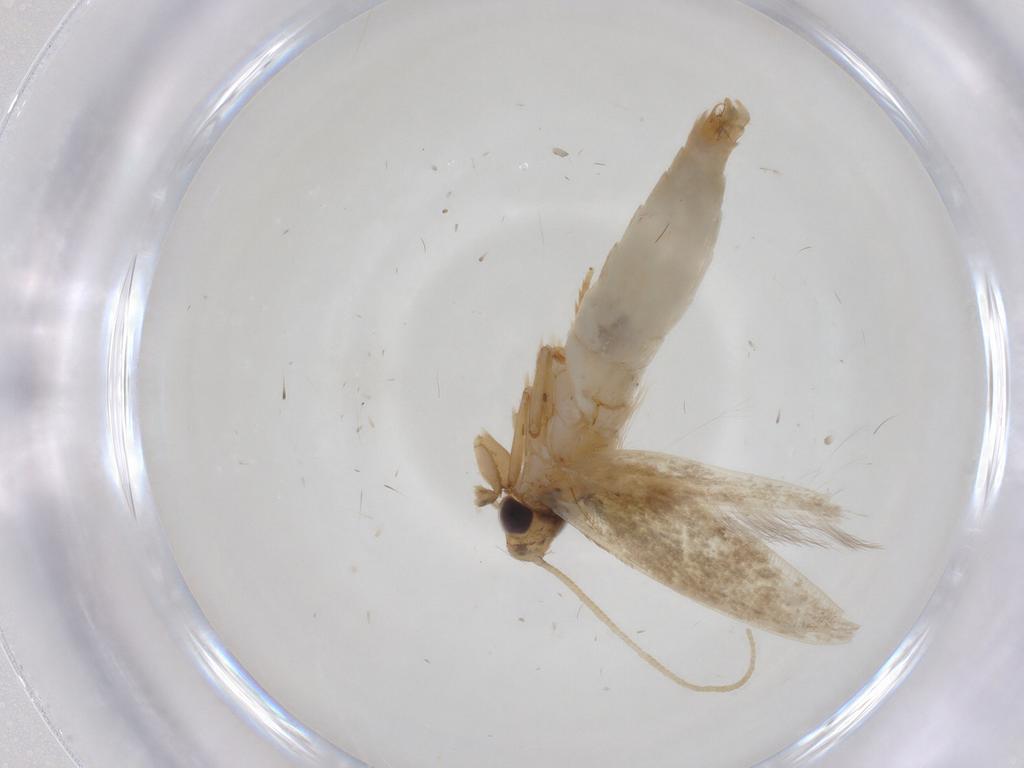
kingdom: Animalia
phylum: Arthropoda
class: Insecta
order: Lepidoptera
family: Tineidae
